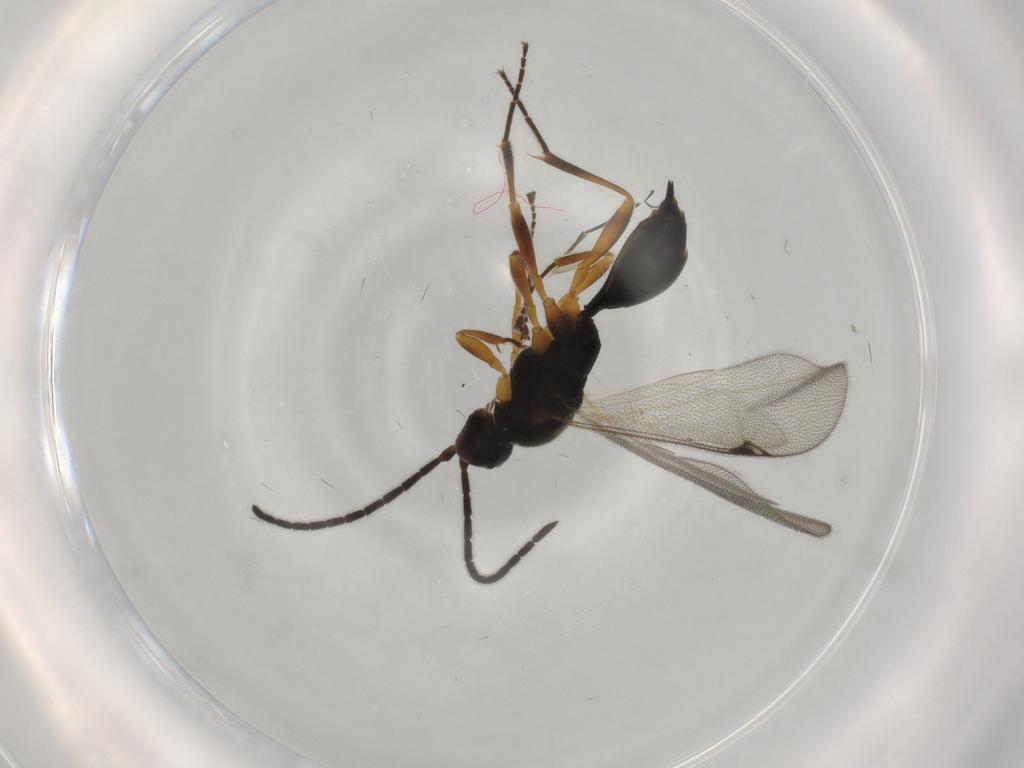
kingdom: Animalia
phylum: Arthropoda
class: Insecta
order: Hymenoptera
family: Proctotrupidae
